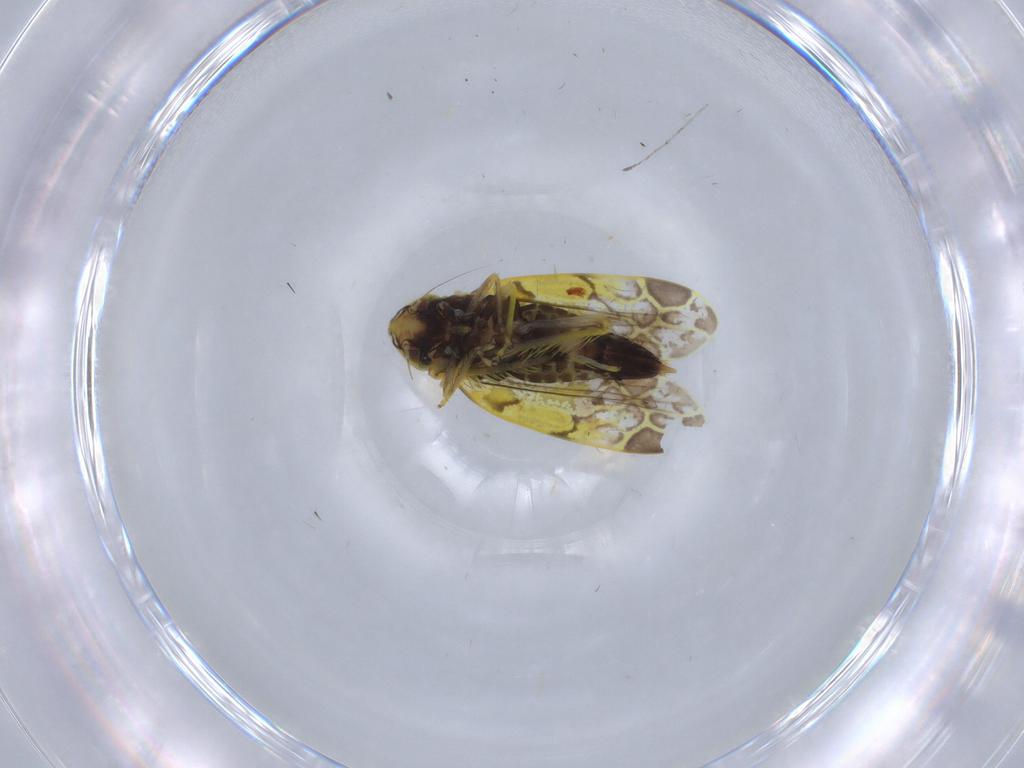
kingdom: Animalia
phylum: Arthropoda
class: Insecta
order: Hemiptera
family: Cicadellidae
